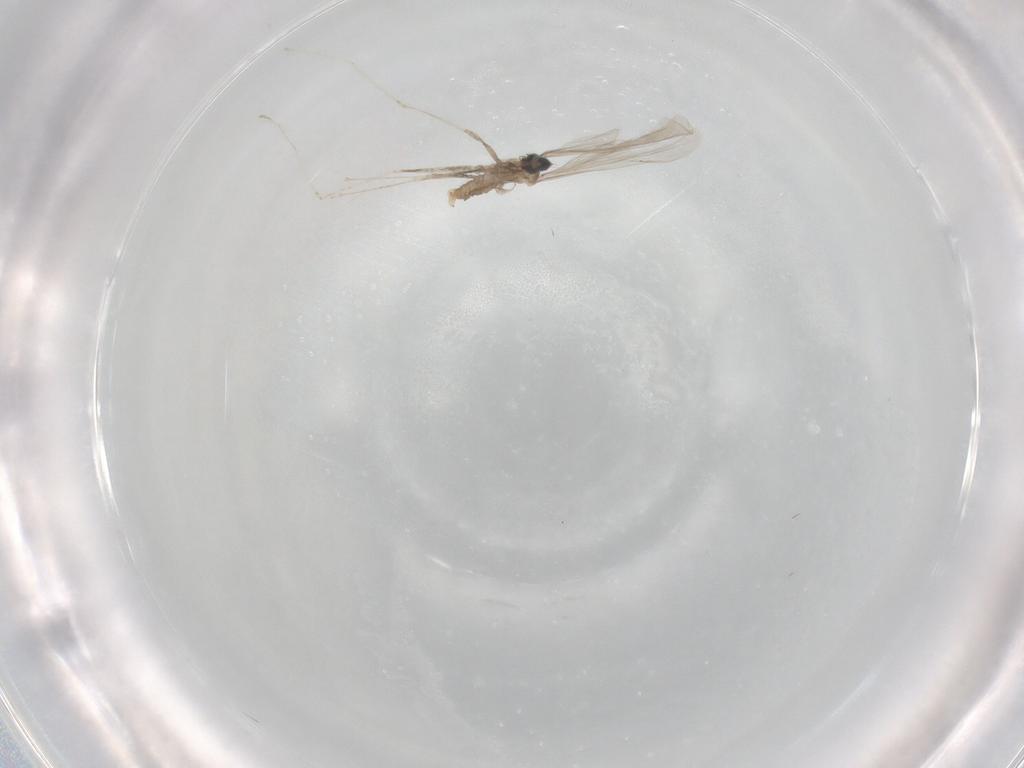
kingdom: Animalia
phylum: Arthropoda
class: Insecta
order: Diptera
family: Cecidomyiidae
